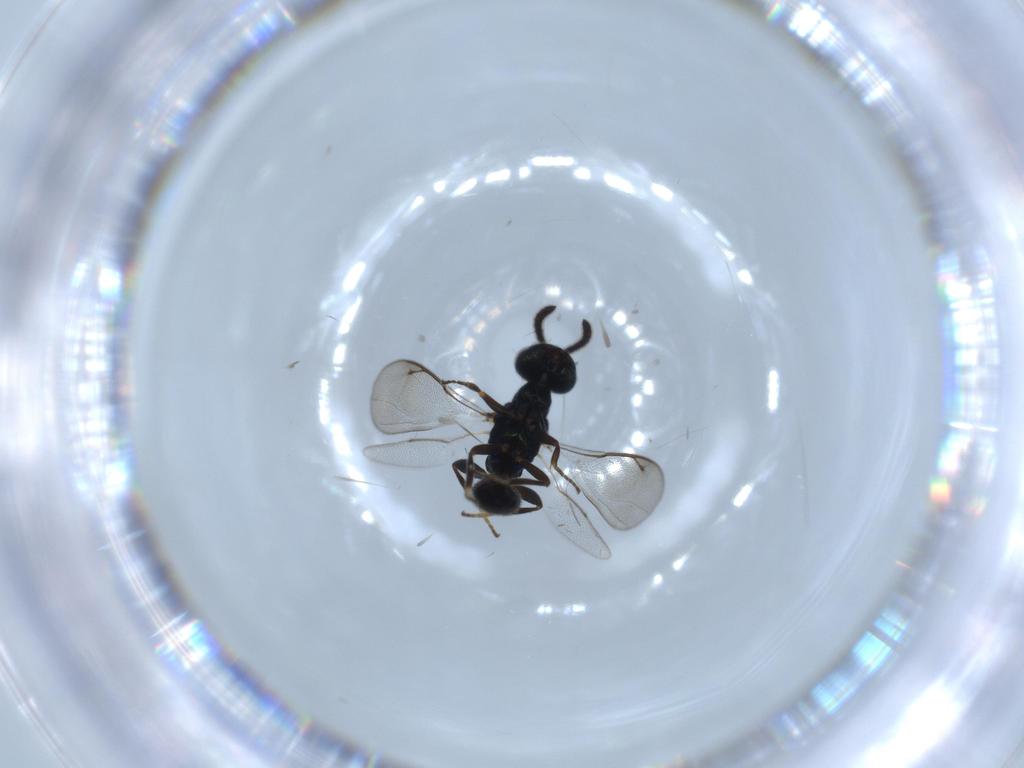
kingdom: Animalia
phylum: Arthropoda
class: Insecta
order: Hymenoptera
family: Cleonyminae
